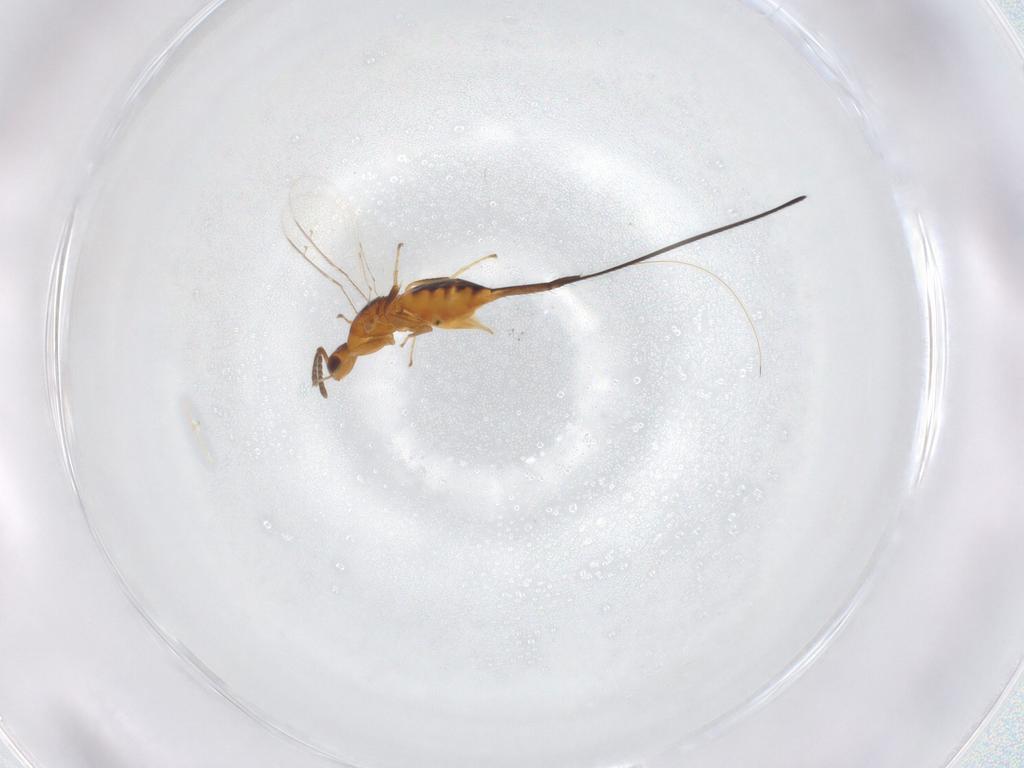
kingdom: Animalia
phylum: Arthropoda
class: Insecta
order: Hymenoptera
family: Pteromalidae
